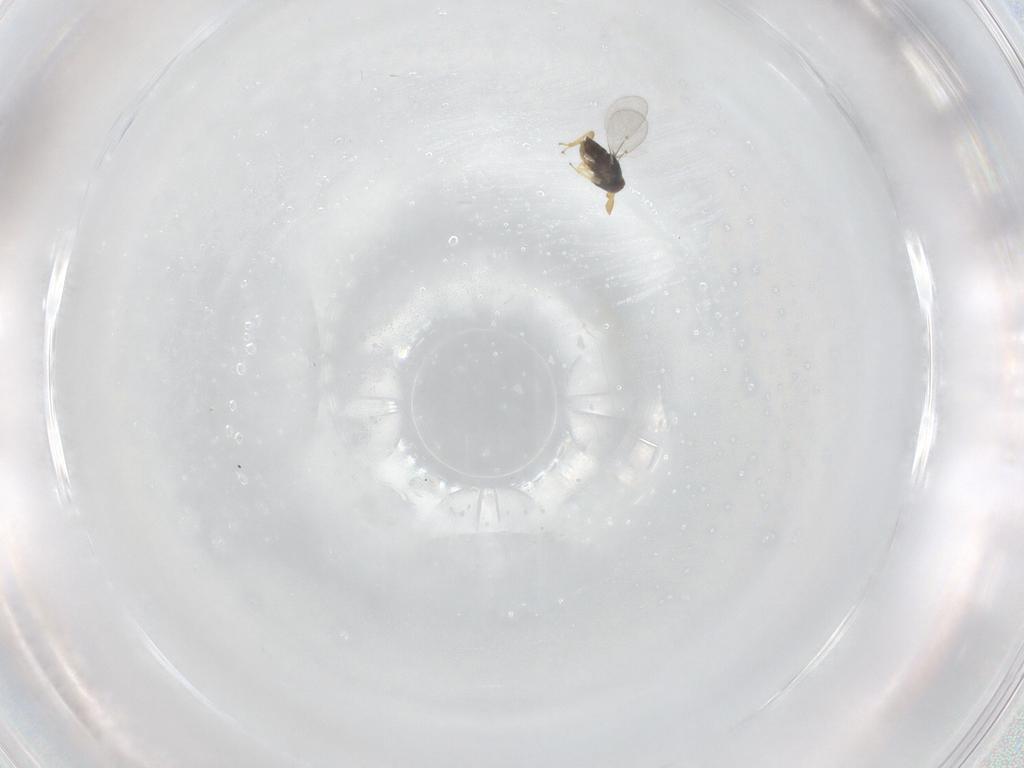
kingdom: Animalia
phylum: Arthropoda
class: Insecta
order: Hymenoptera
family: Encyrtidae
